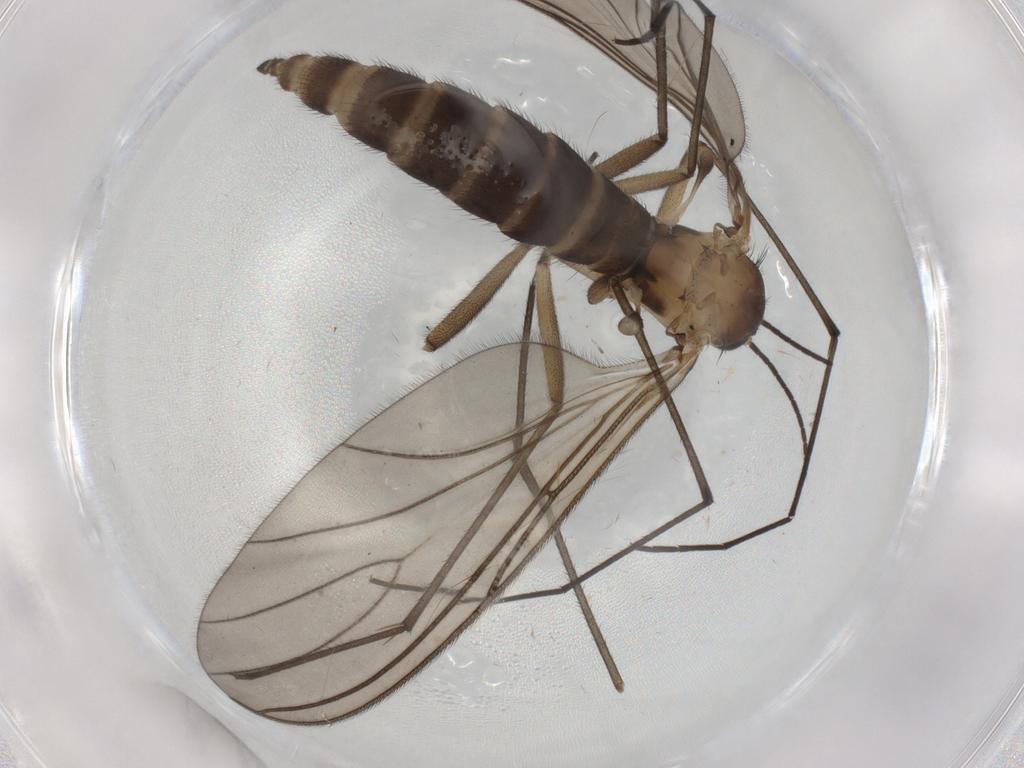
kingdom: Animalia
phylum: Arthropoda
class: Insecta
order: Diptera
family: Sciaridae
